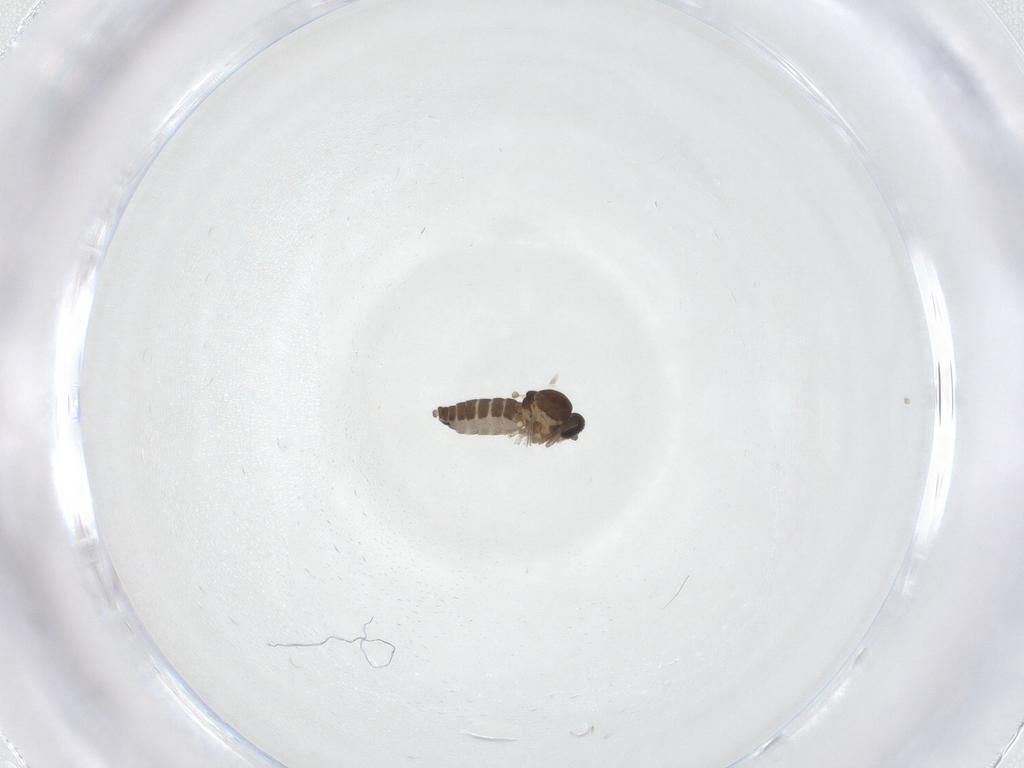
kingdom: Animalia
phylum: Arthropoda
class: Insecta
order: Diptera
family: Ceratopogonidae
